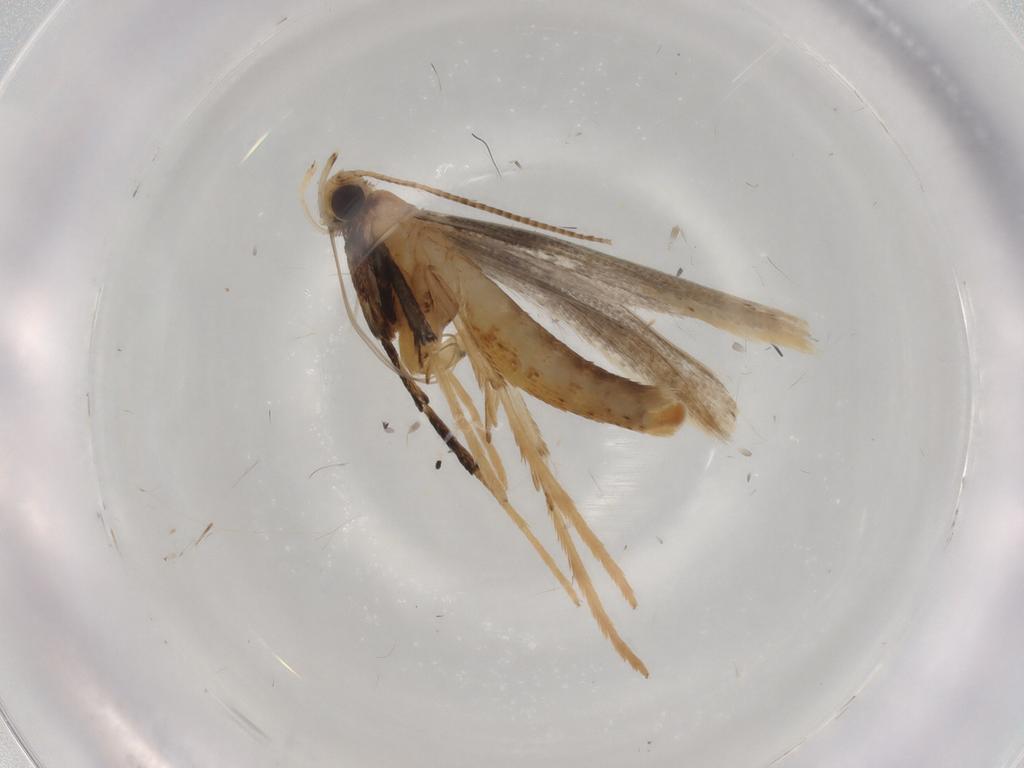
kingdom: Animalia
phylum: Arthropoda
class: Insecta
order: Lepidoptera
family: Gracillariidae
